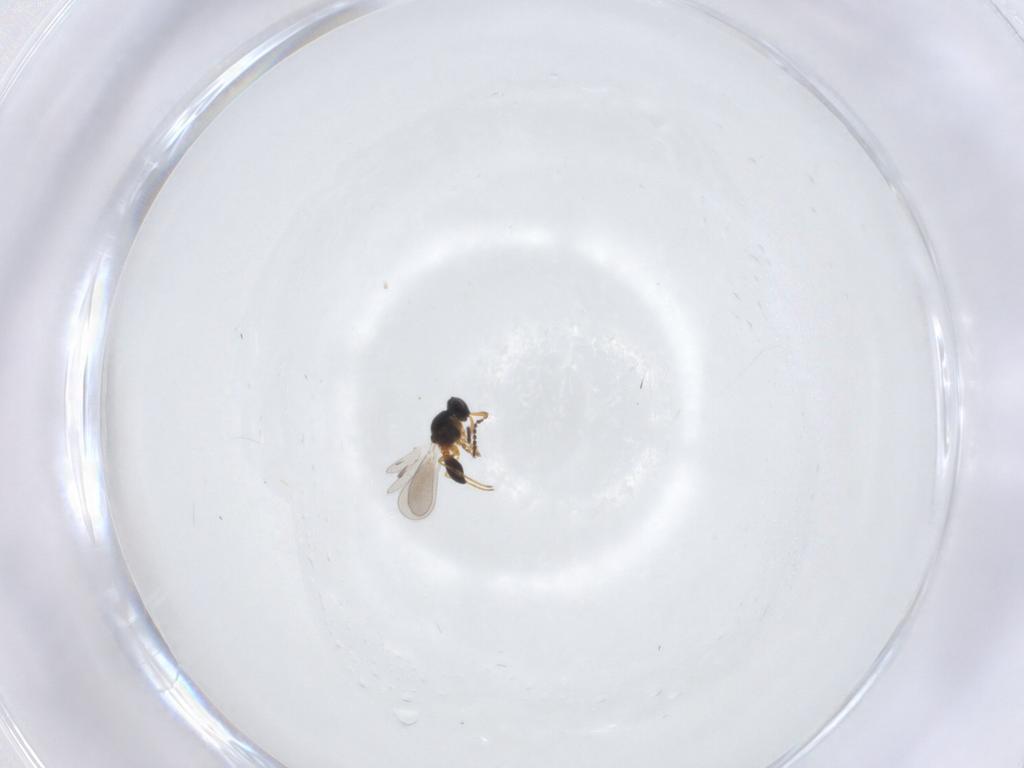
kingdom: Animalia
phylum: Arthropoda
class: Insecta
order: Hymenoptera
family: Platygastridae
